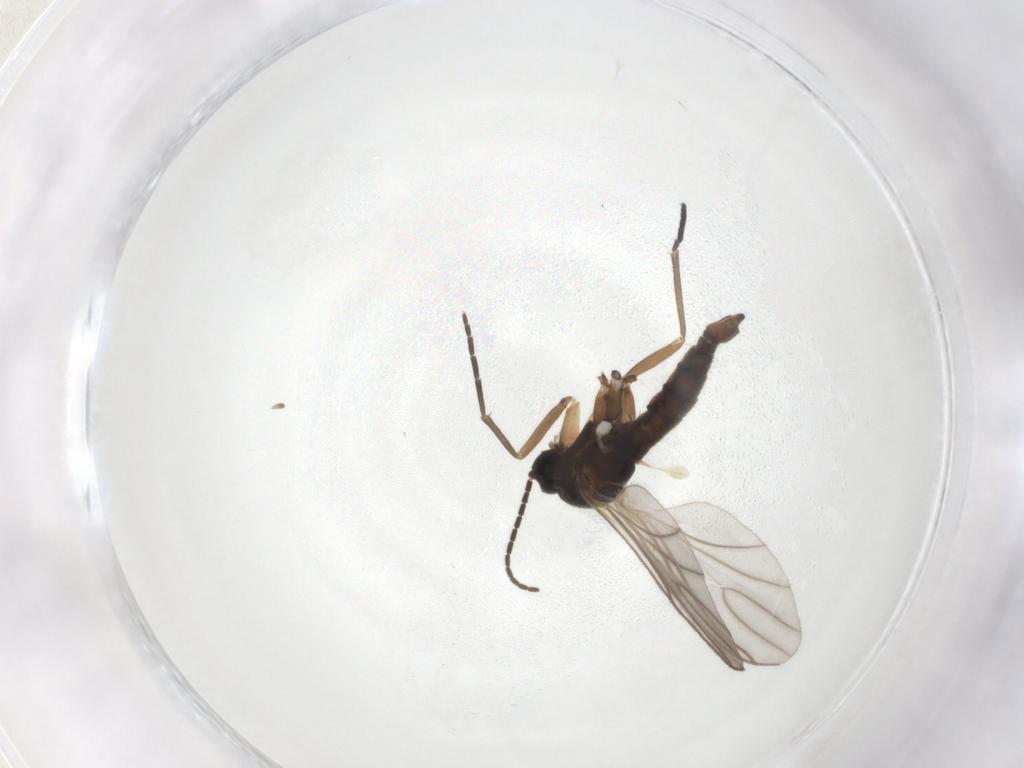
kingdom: Animalia
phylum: Arthropoda
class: Insecta
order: Diptera
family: Sciaridae
